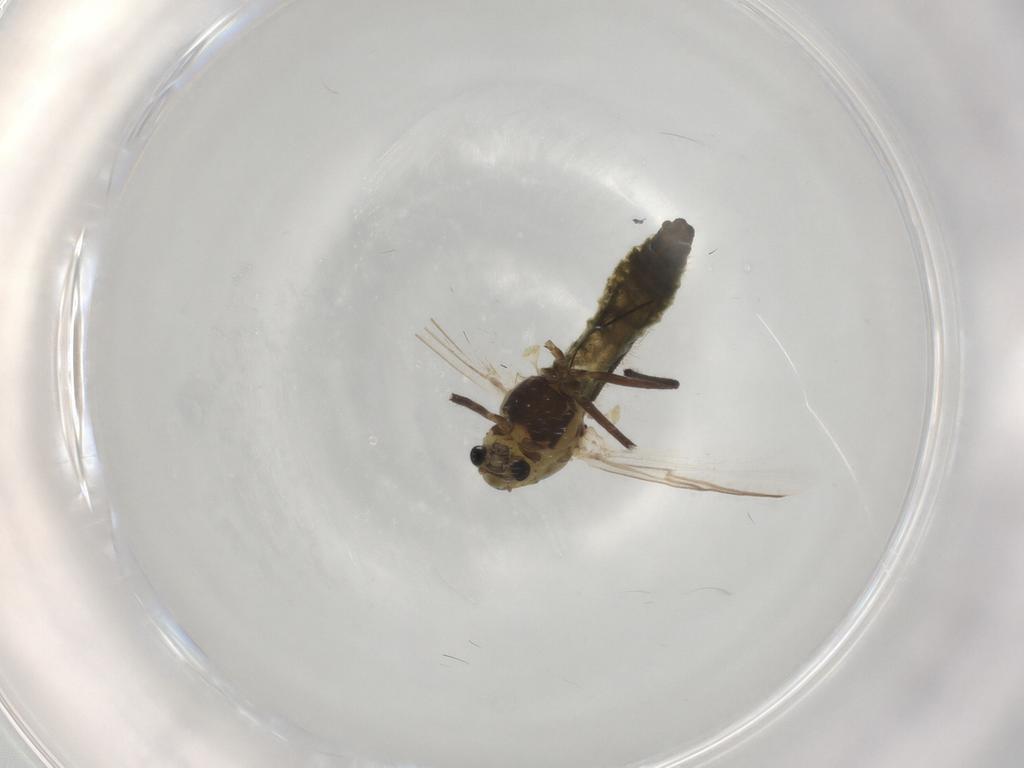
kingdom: Animalia
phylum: Arthropoda
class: Insecta
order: Diptera
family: Chironomidae
